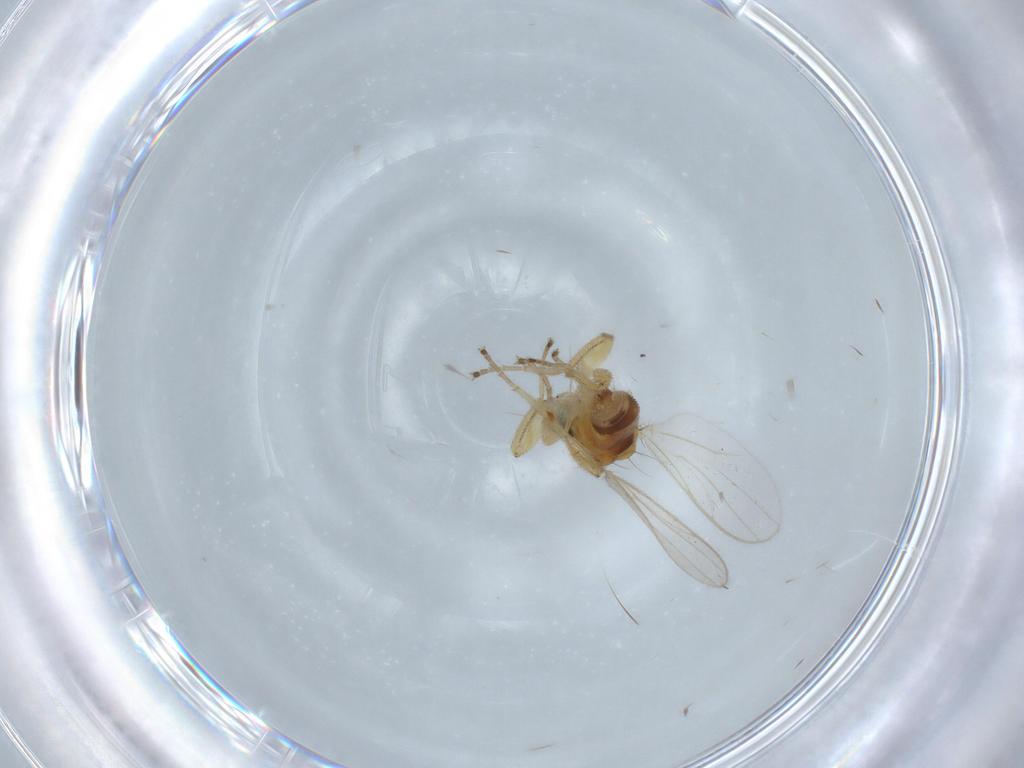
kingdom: Animalia
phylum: Arthropoda
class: Insecta
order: Diptera
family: Hybotidae
